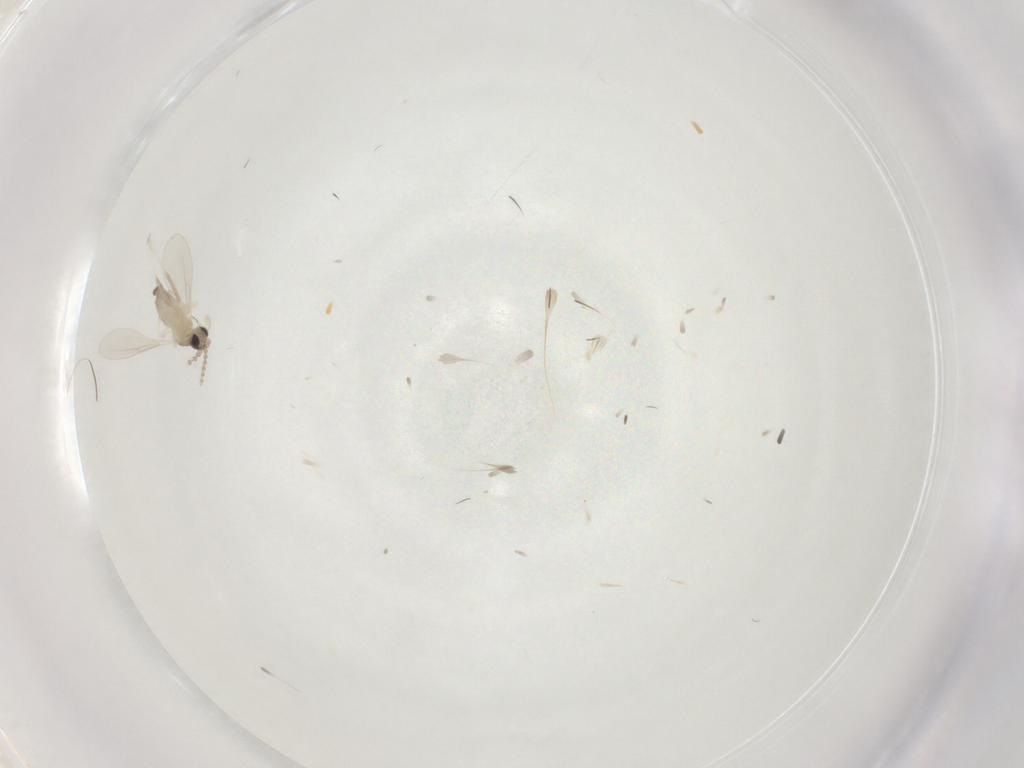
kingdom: Animalia
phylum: Arthropoda
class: Insecta
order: Diptera
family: Cecidomyiidae
